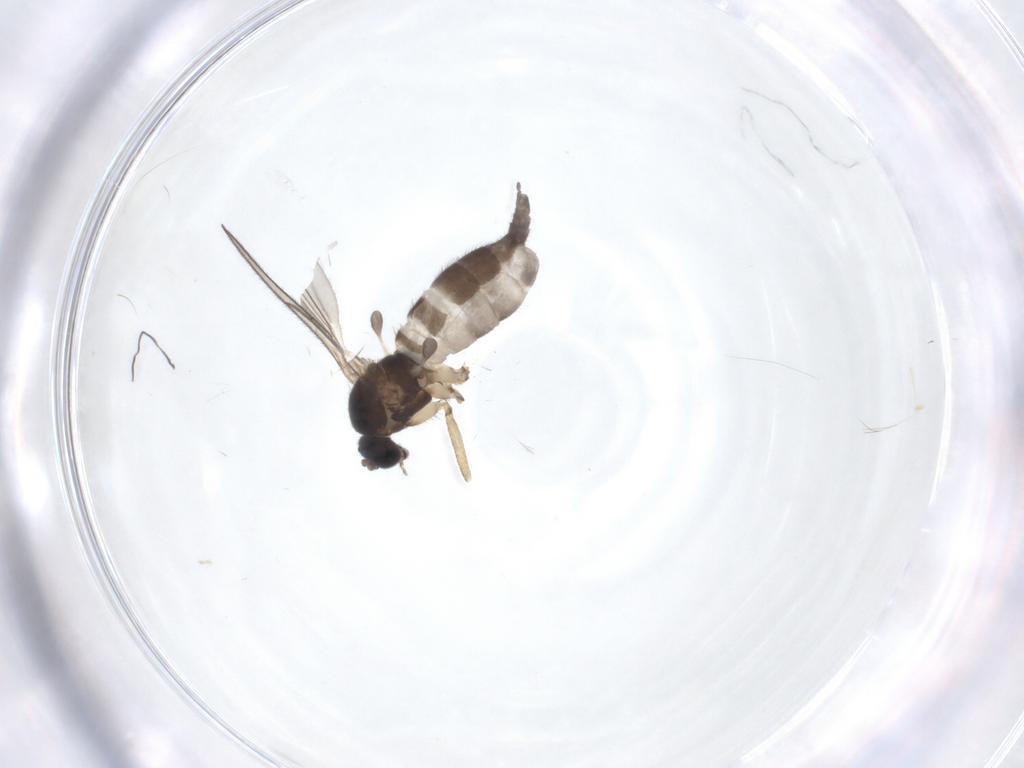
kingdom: Animalia
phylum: Arthropoda
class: Insecta
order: Diptera
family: Sciaridae
